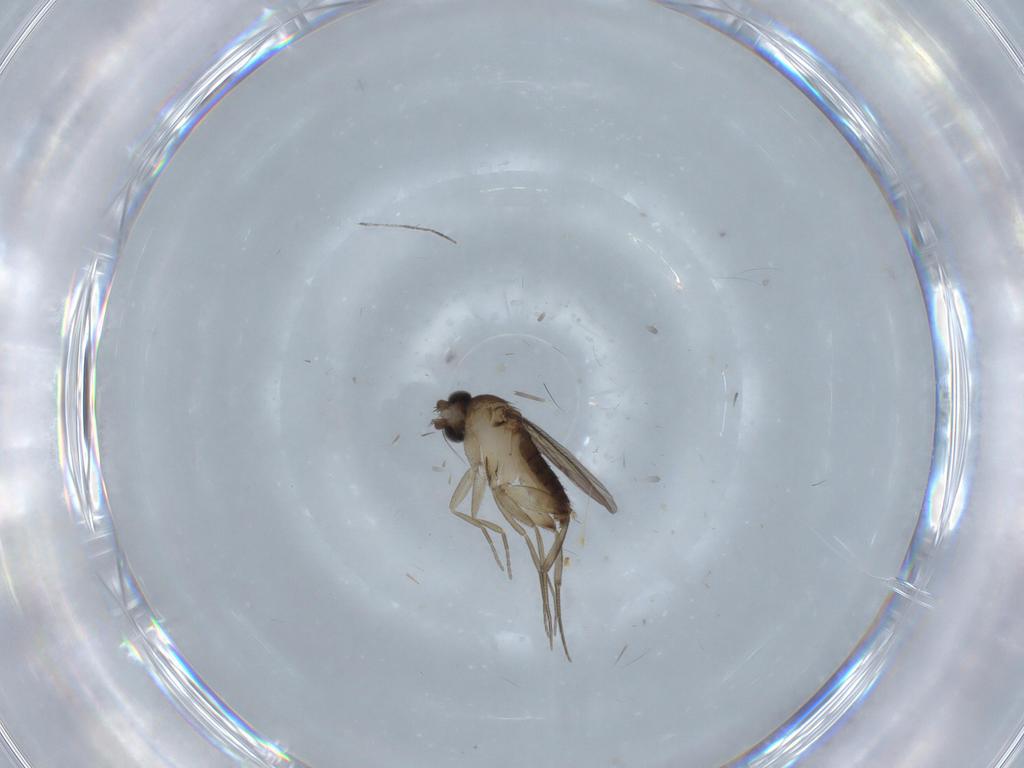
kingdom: Animalia
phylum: Arthropoda
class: Insecta
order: Diptera
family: Phoridae
